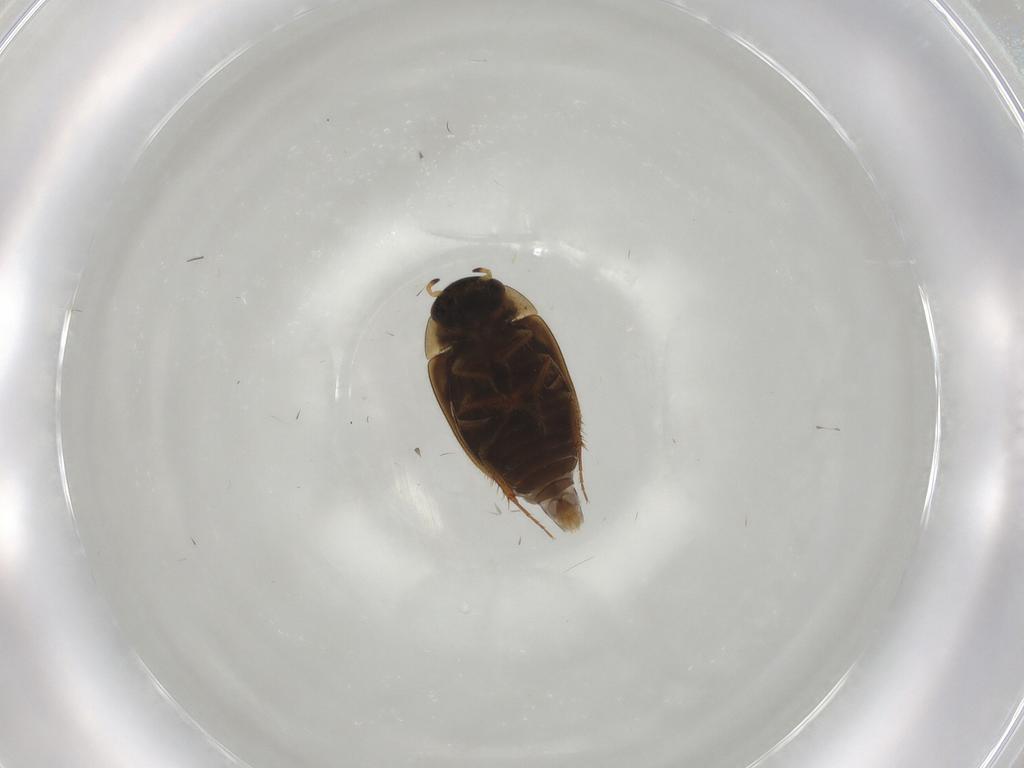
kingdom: Animalia
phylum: Arthropoda
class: Insecta
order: Coleoptera
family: Hydrophilidae
